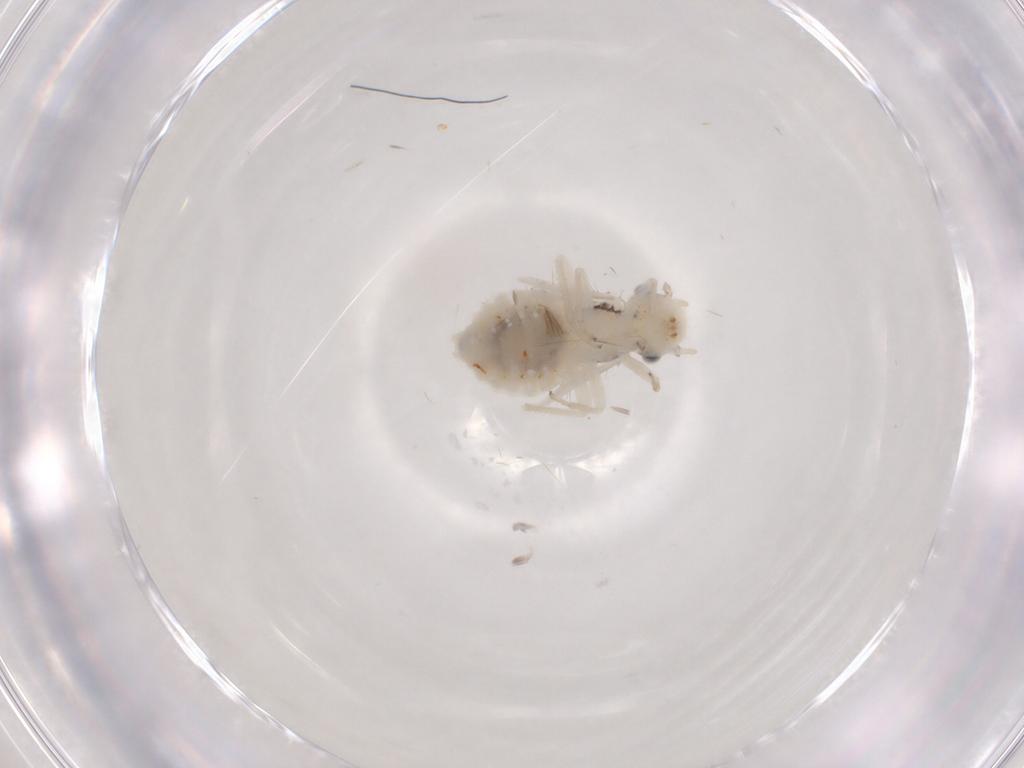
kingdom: Animalia
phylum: Arthropoda
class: Insecta
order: Psocodea
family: Caeciliusidae
